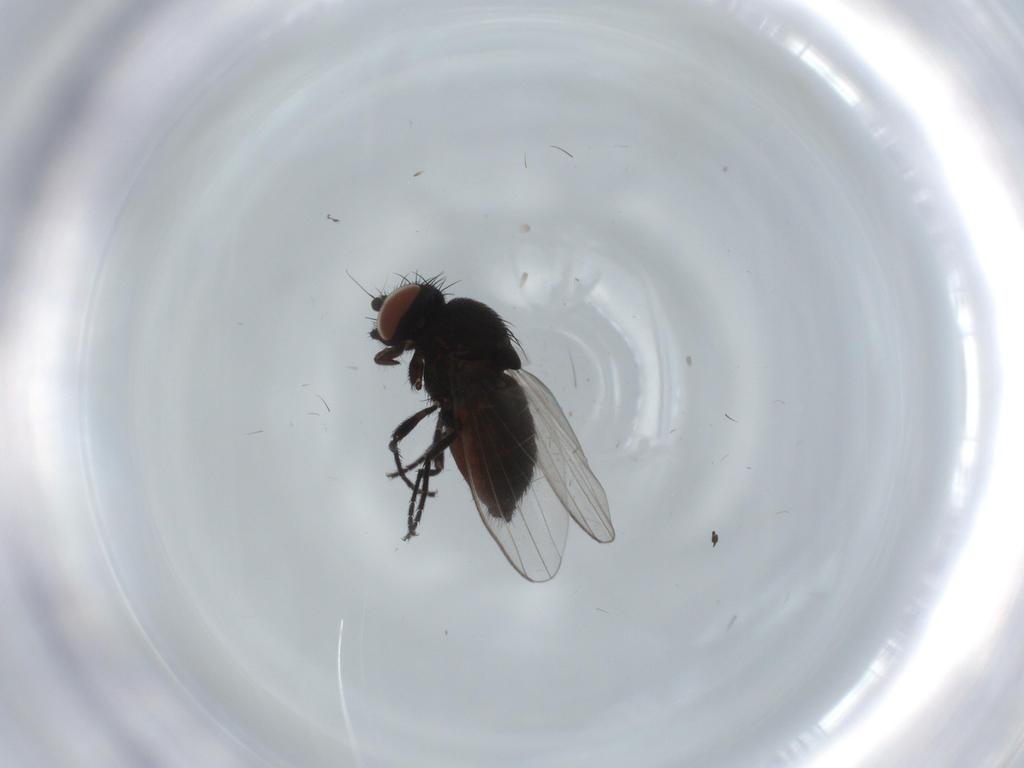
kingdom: Animalia
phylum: Arthropoda
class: Insecta
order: Diptera
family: Milichiidae
